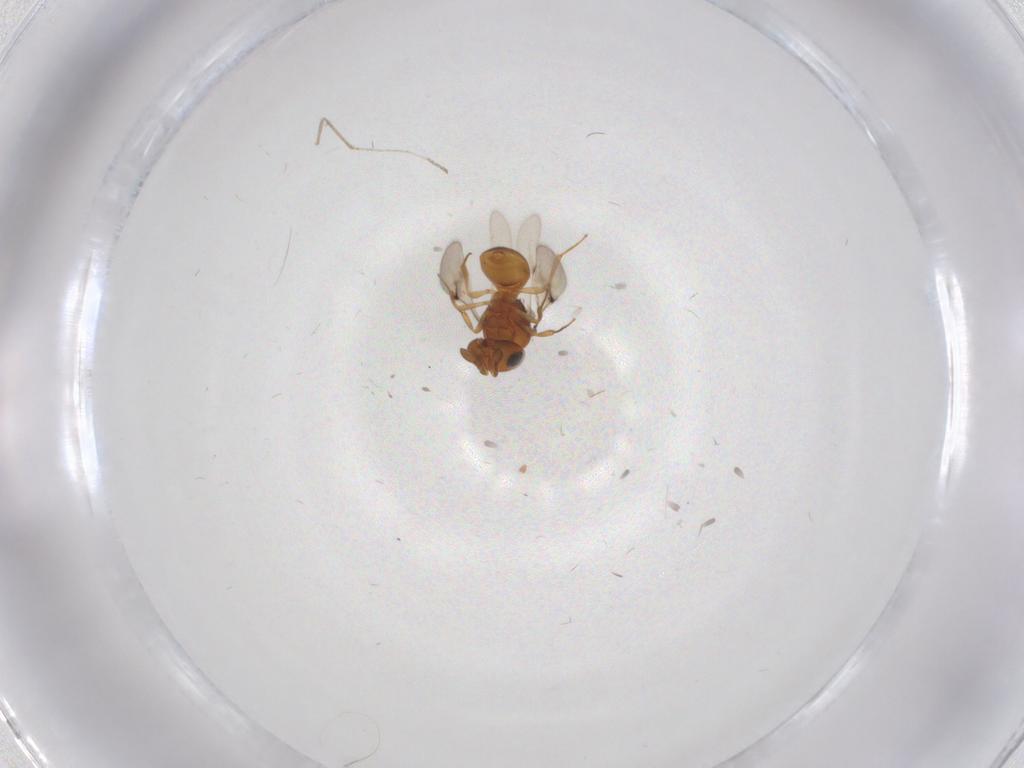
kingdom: Animalia
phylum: Arthropoda
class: Insecta
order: Hymenoptera
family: Scelionidae
